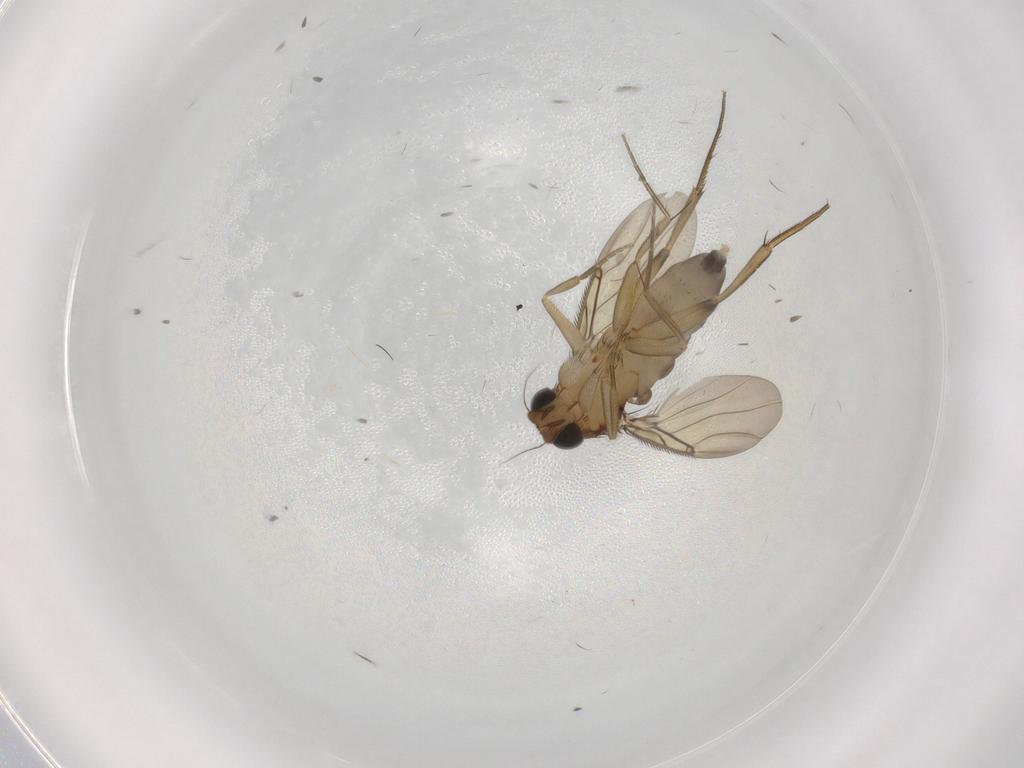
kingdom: Animalia
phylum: Arthropoda
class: Insecta
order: Diptera
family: Phoridae
